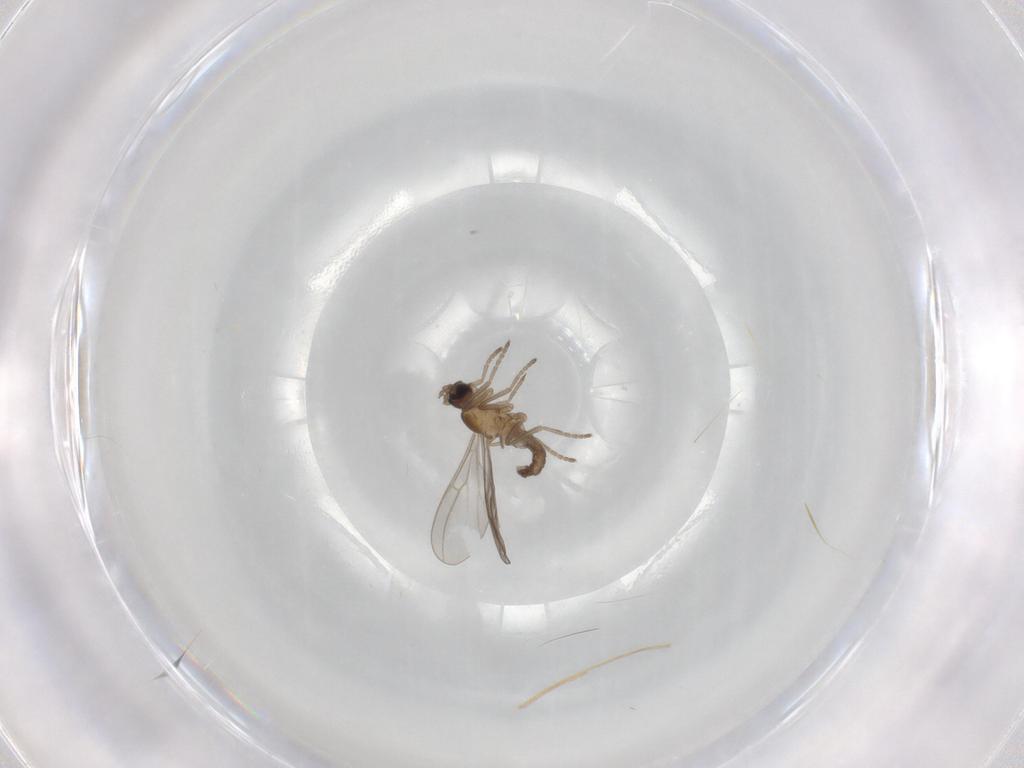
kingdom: Animalia
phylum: Arthropoda
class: Insecta
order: Diptera
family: Cecidomyiidae
